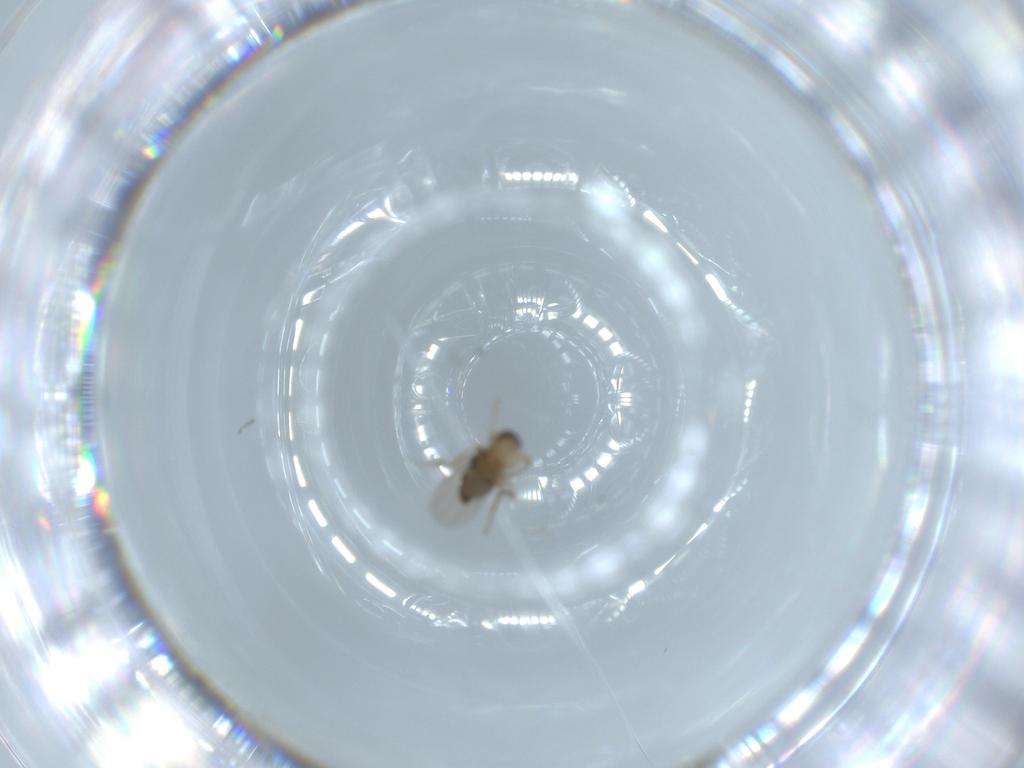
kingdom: Animalia
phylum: Arthropoda
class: Insecta
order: Diptera
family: Phoridae
